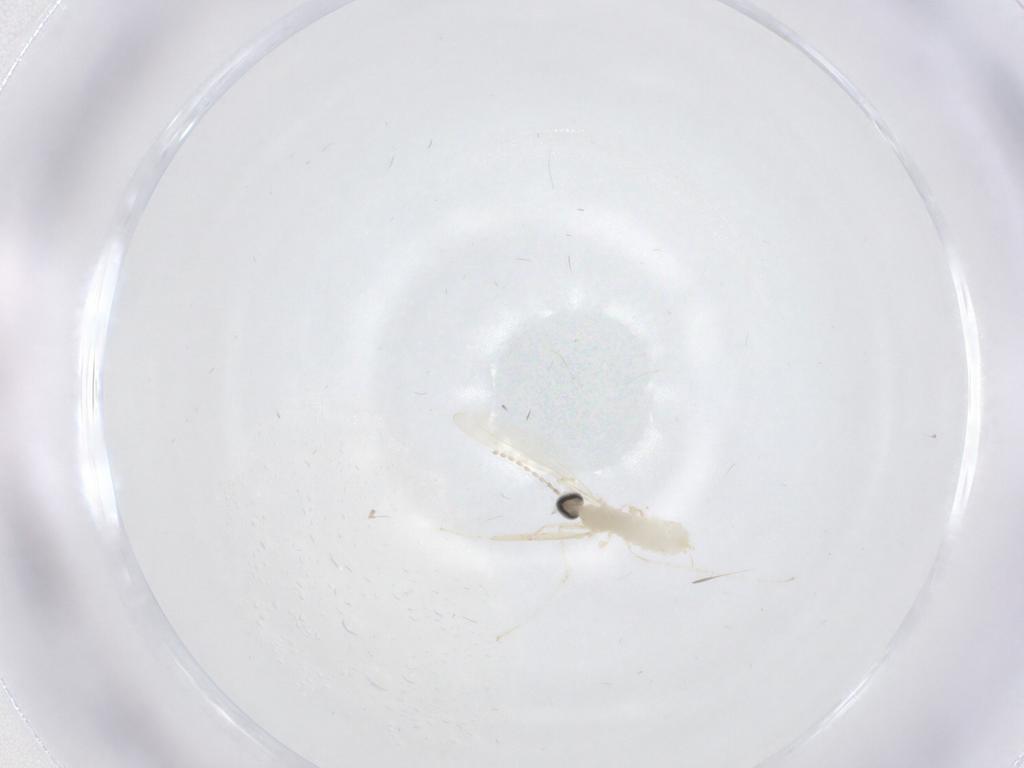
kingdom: Animalia
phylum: Arthropoda
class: Insecta
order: Diptera
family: Cecidomyiidae
